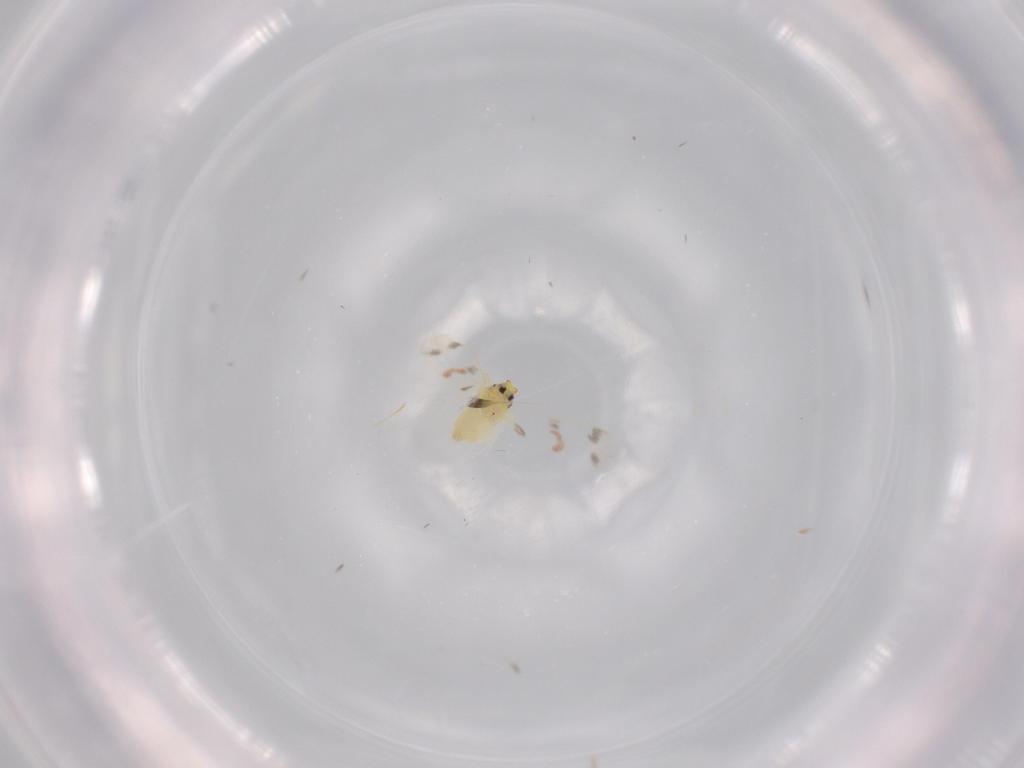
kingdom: Animalia
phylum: Arthropoda
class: Insecta
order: Hemiptera
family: Aleyrodidae
